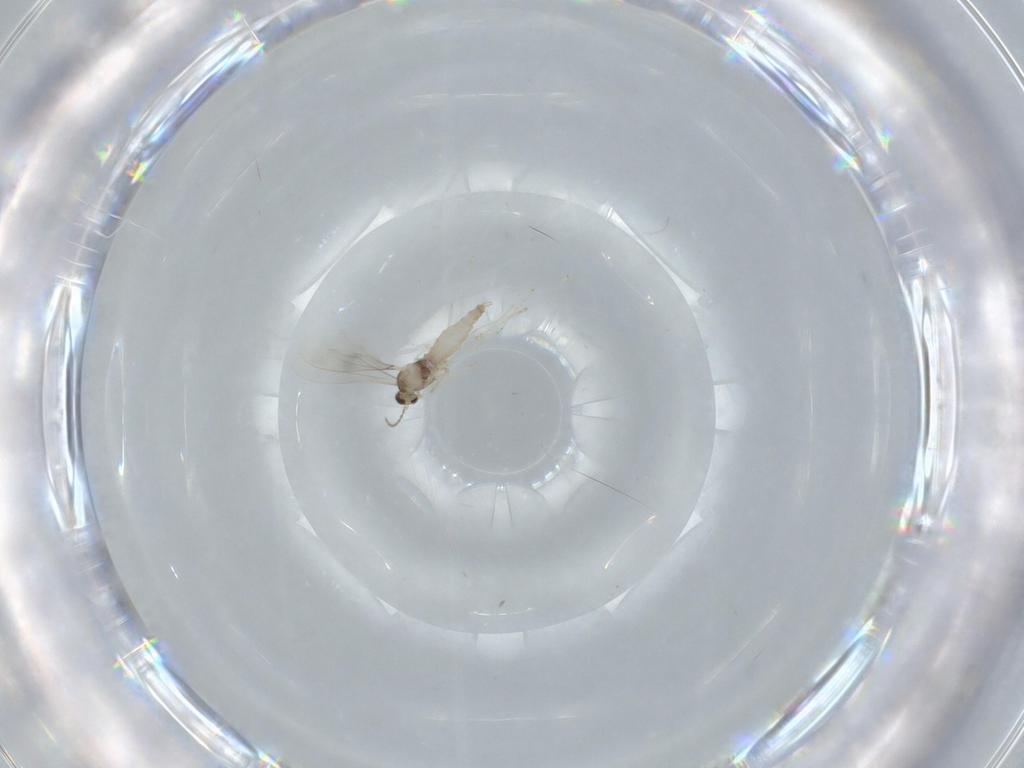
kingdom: Animalia
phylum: Arthropoda
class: Insecta
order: Diptera
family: Cecidomyiidae
